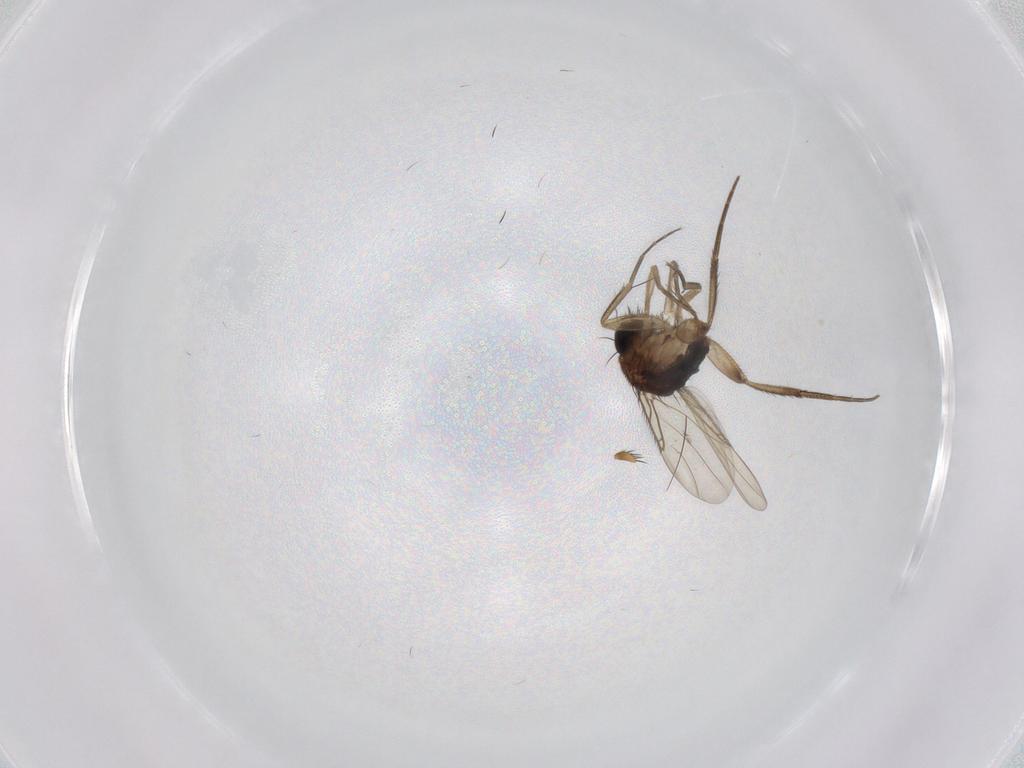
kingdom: Animalia
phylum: Arthropoda
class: Insecta
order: Diptera
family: Phoridae
